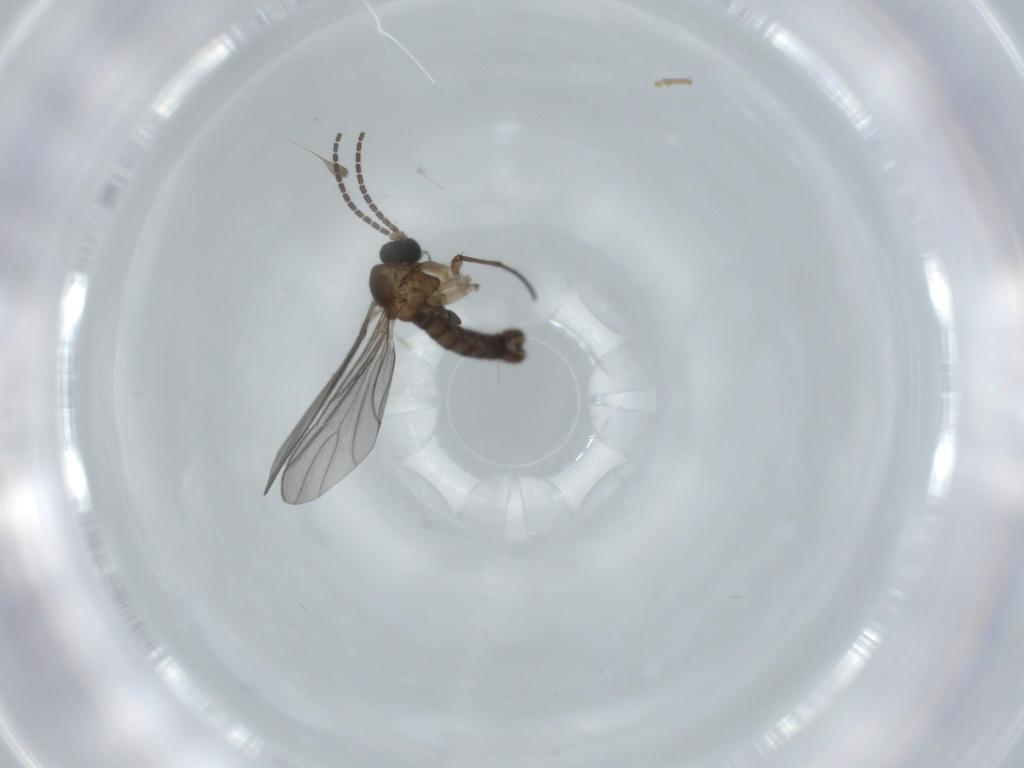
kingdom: Animalia
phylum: Arthropoda
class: Insecta
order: Diptera
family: Phoridae
